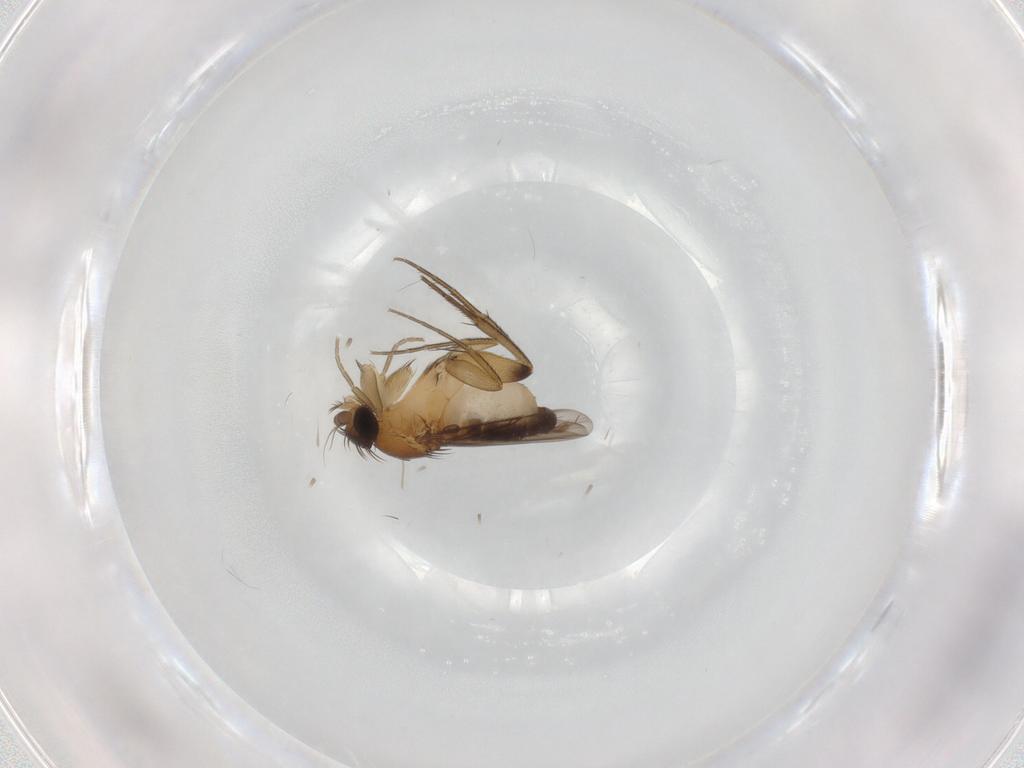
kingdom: Animalia
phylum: Arthropoda
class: Insecta
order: Diptera
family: Phoridae
